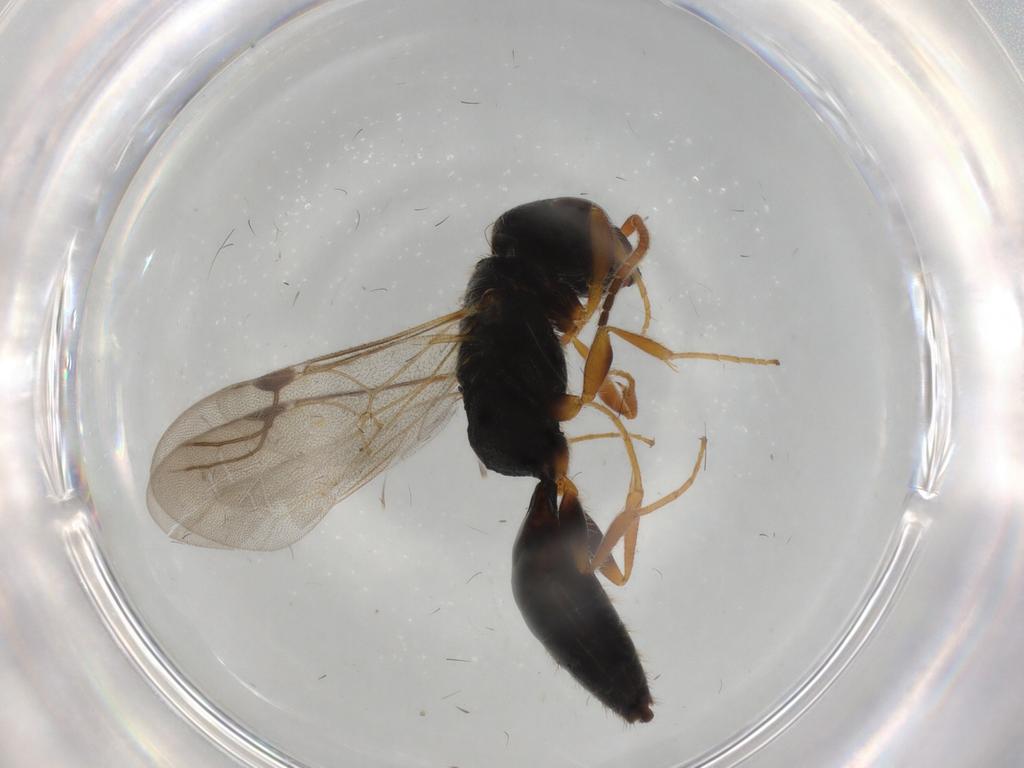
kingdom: Animalia
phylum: Arthropoda
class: Insecta
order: Hymenoptera
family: Bethylidae
